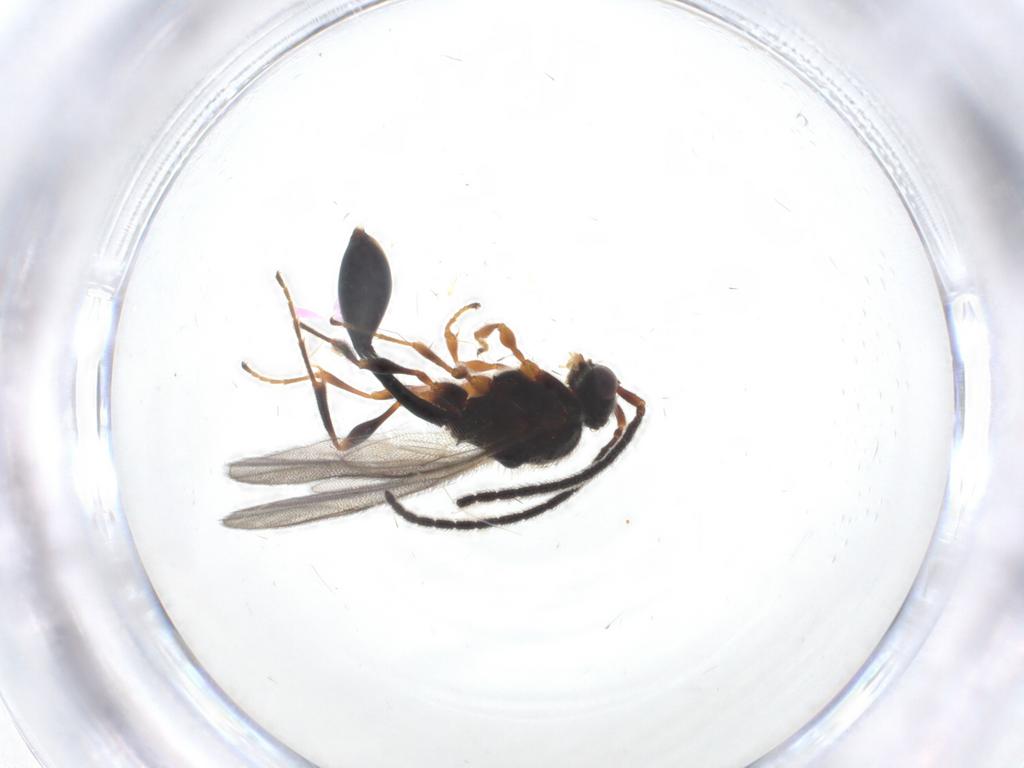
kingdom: Animalia
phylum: Arthropoda
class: Insecta
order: Hymenoptera
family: Diapriidae
